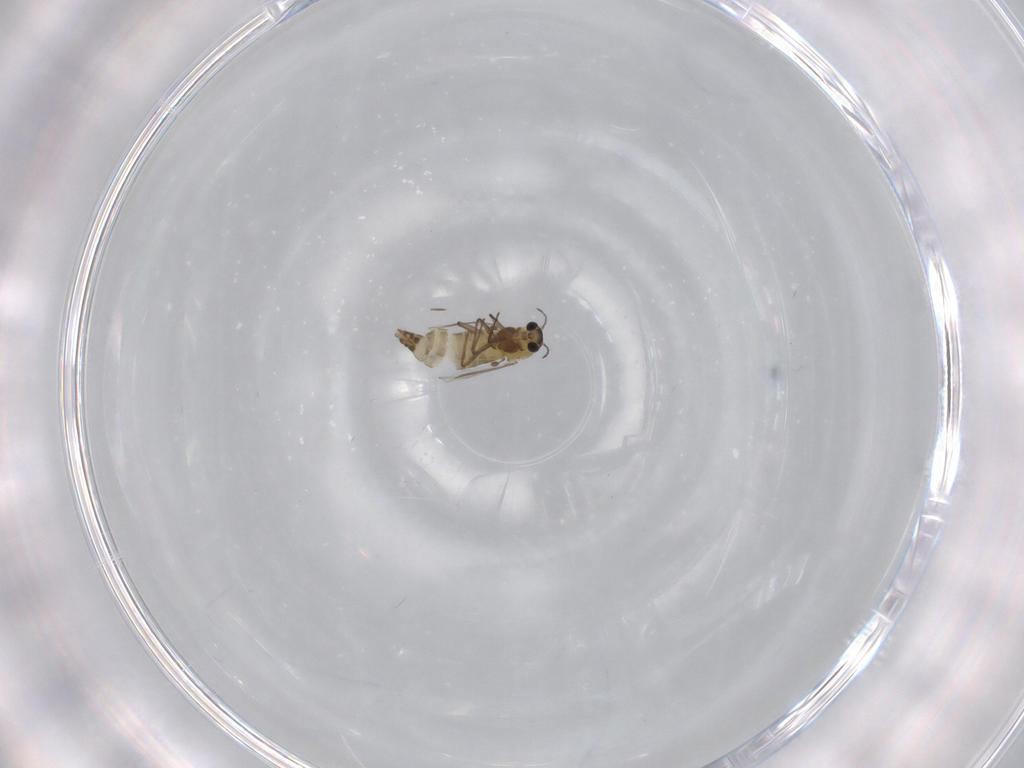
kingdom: Animalia
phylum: Arthropoda
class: Insecta
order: Diptera
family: Chironomidae
